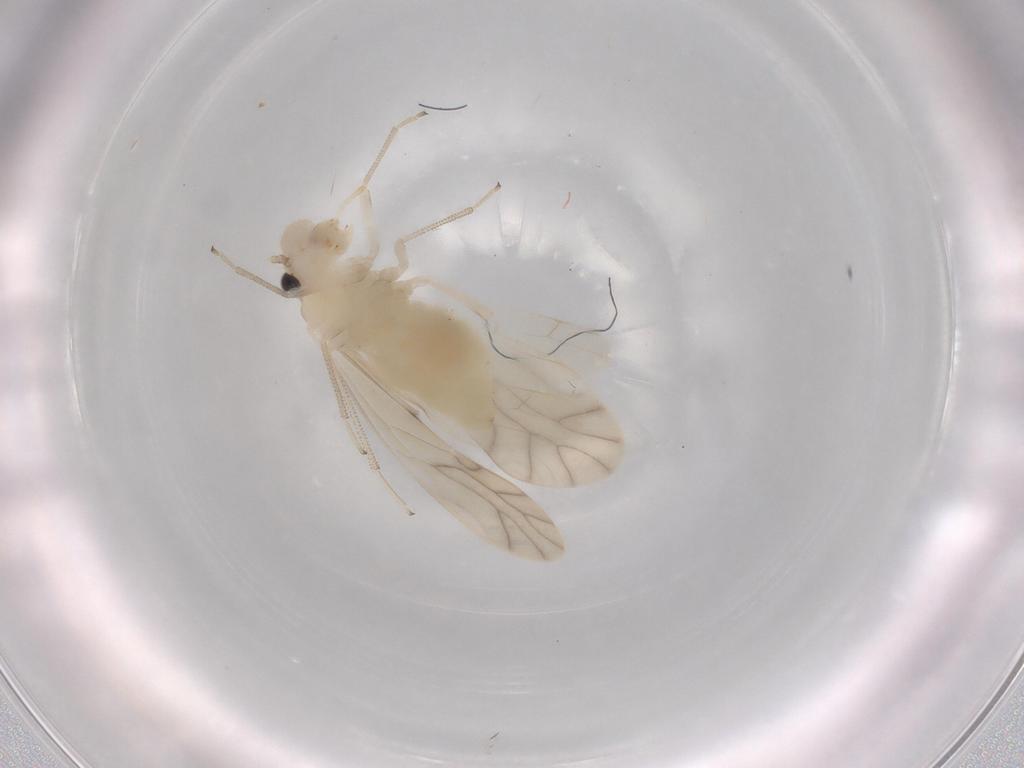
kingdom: Animalia
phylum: Arthropoda
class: Insecta
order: Psocodea
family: Caeciliusidae
